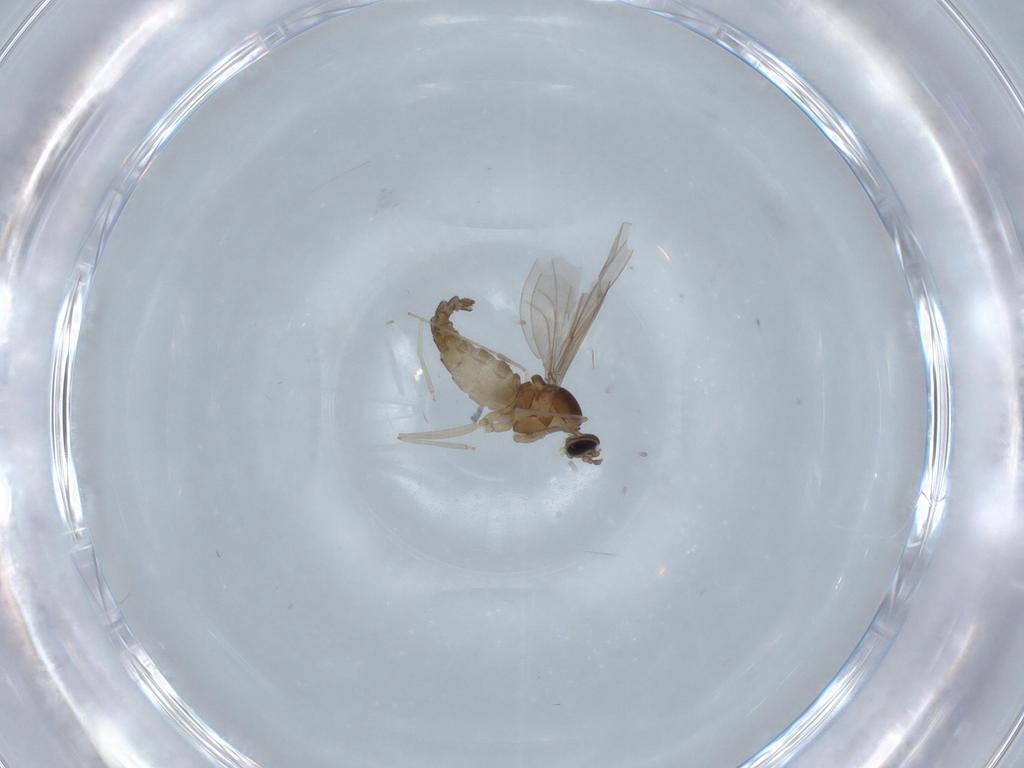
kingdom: Animalia
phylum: Arthropoda
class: Insecta
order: Diptera
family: Cecidomyiidae
